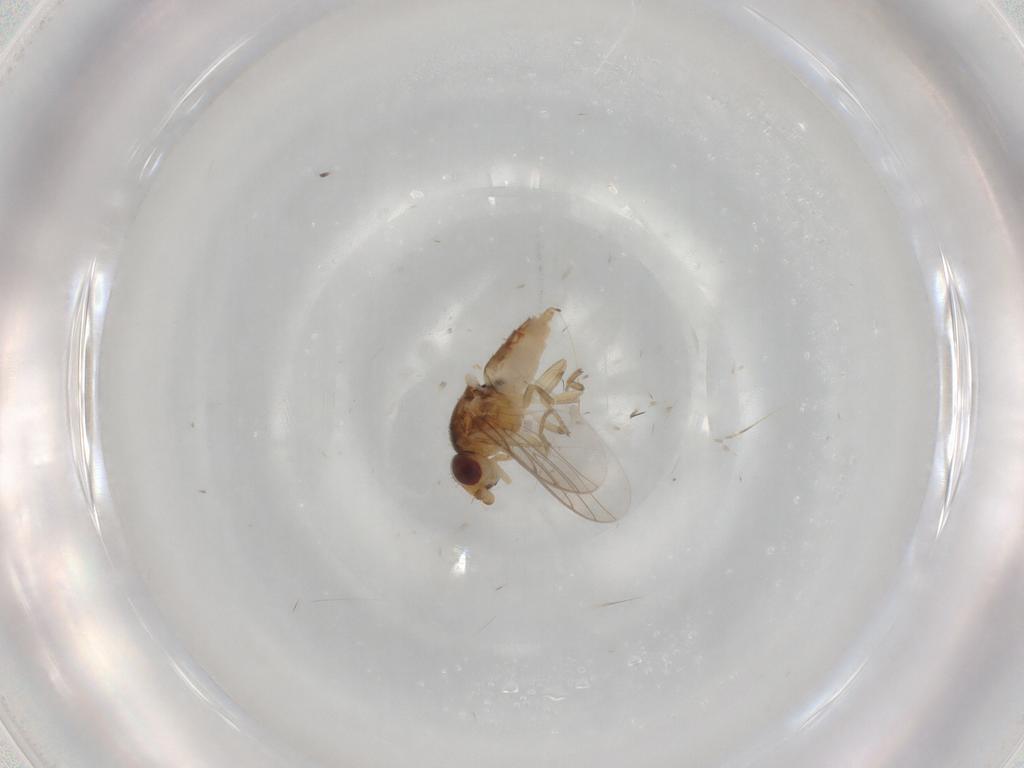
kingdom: Animalia
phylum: Arthropoda
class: Insecta
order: Diptera
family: Chloropidae
